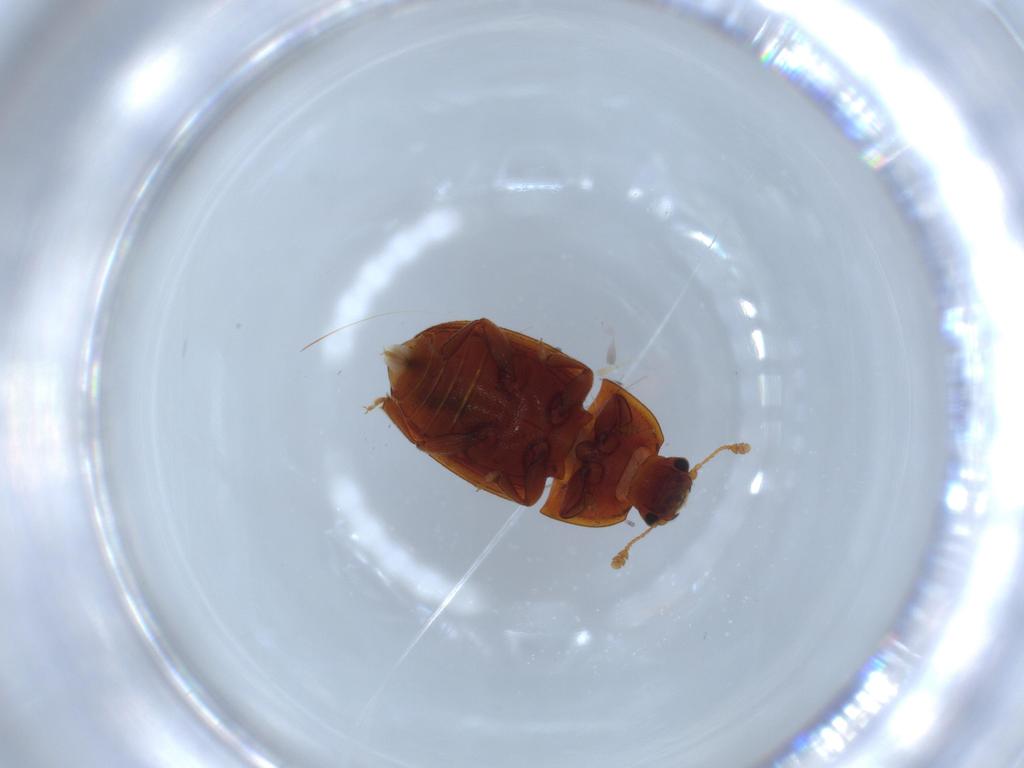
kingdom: Animalia
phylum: Arthropoda
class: Insecta
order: Coleoptera
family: Nitidulidae
